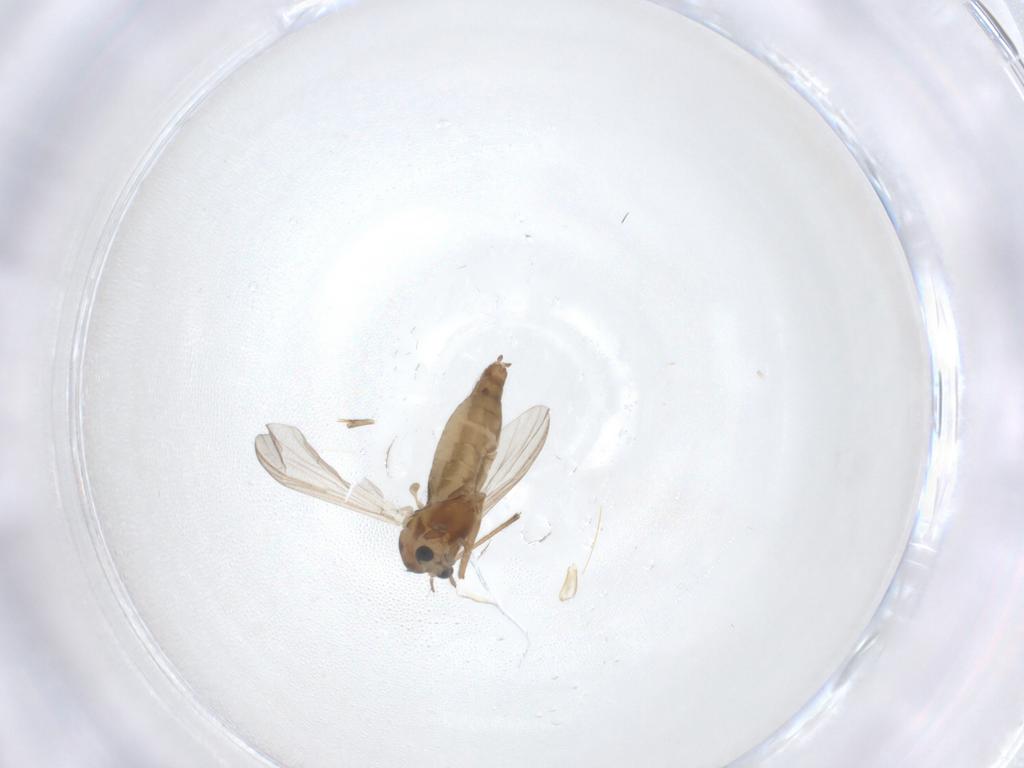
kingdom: Animalia
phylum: Arthropoda
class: Insecta
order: Diptera
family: Chironomidae
